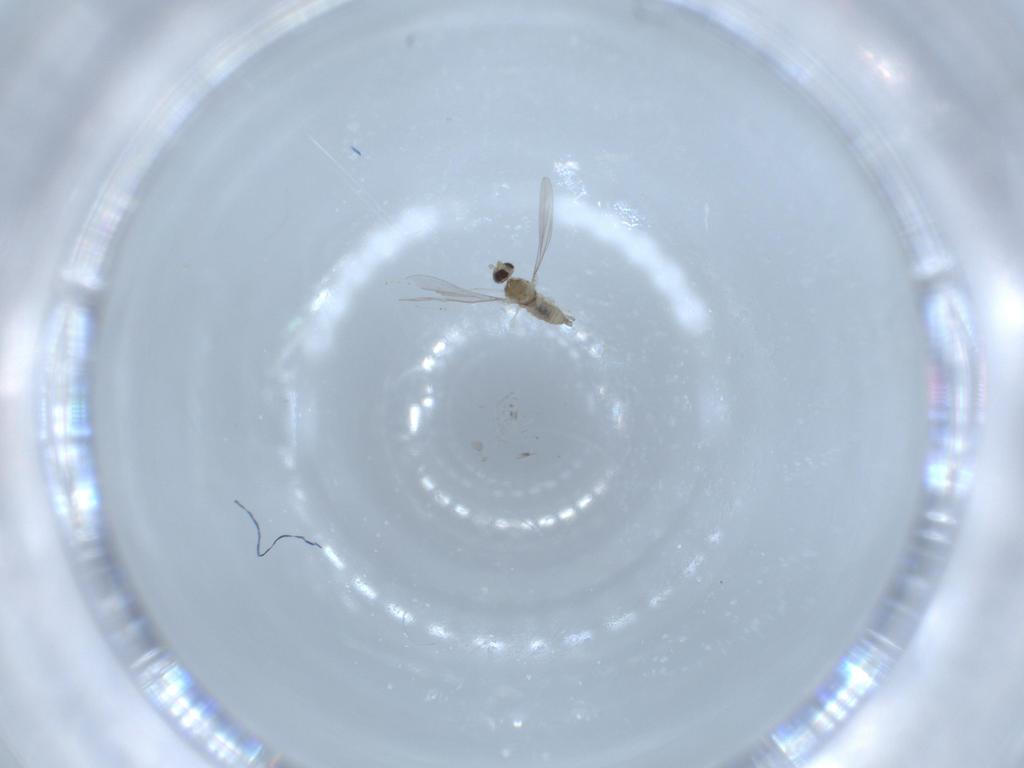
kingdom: Animalia
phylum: Arthropoda
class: Insecta
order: Diptera
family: Cecidomyiidae
